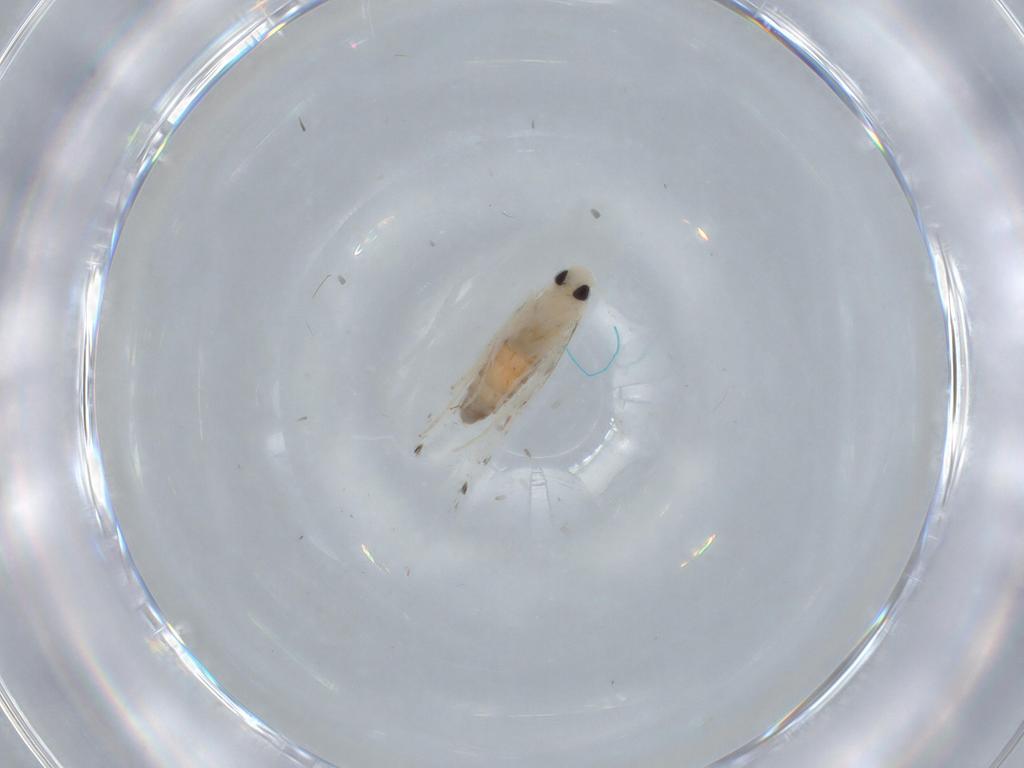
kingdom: Animalia
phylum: Arthropoda
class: Insecta
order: Lepidoptera
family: Gracillariidae
